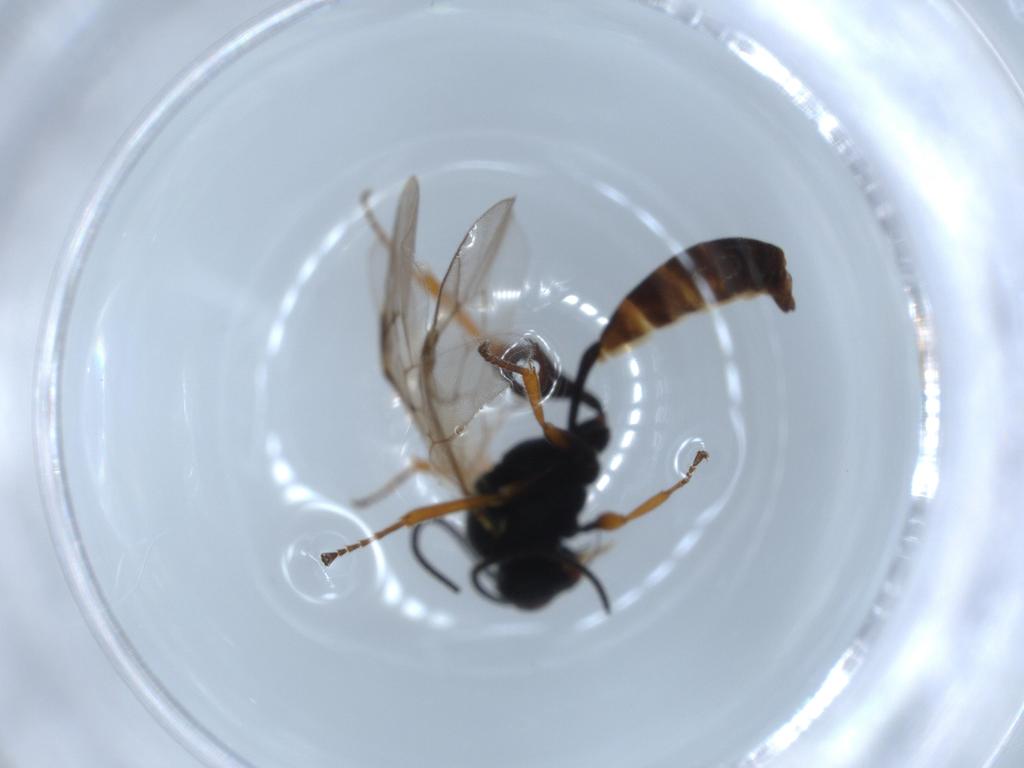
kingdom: Animalia
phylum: Arthropoda
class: Insecta
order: Hymenoptera
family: Ichneumonidae
